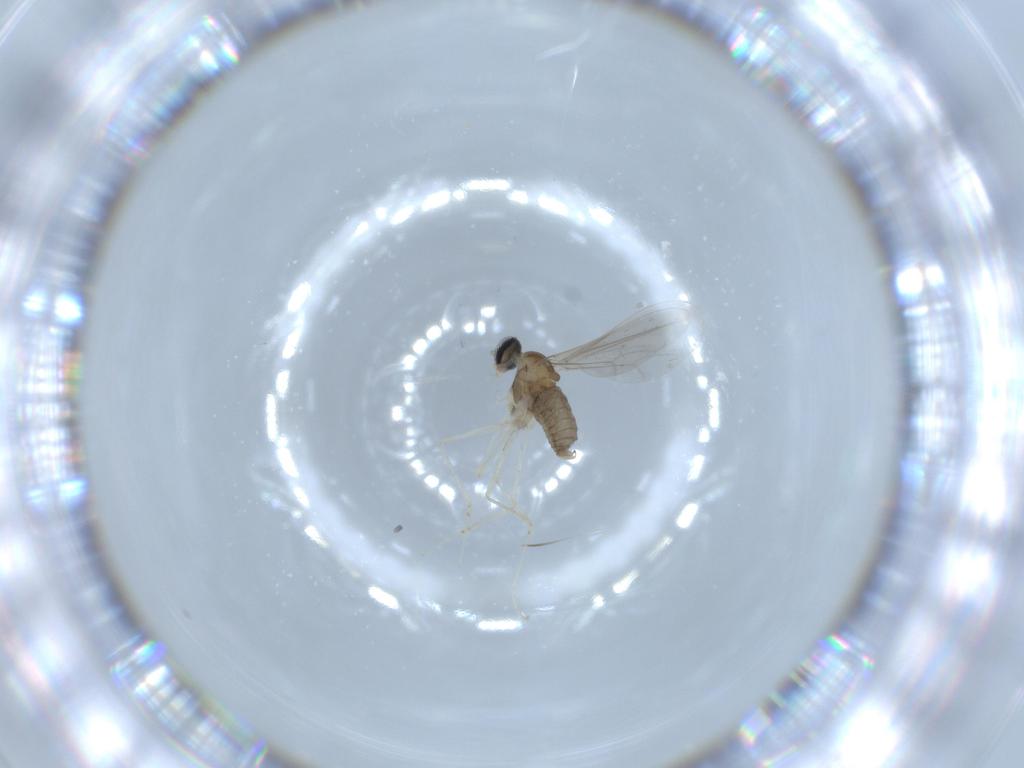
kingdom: Animalia
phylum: Arthropoda
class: Insecta
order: Diptera
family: Cecidomyiidae
